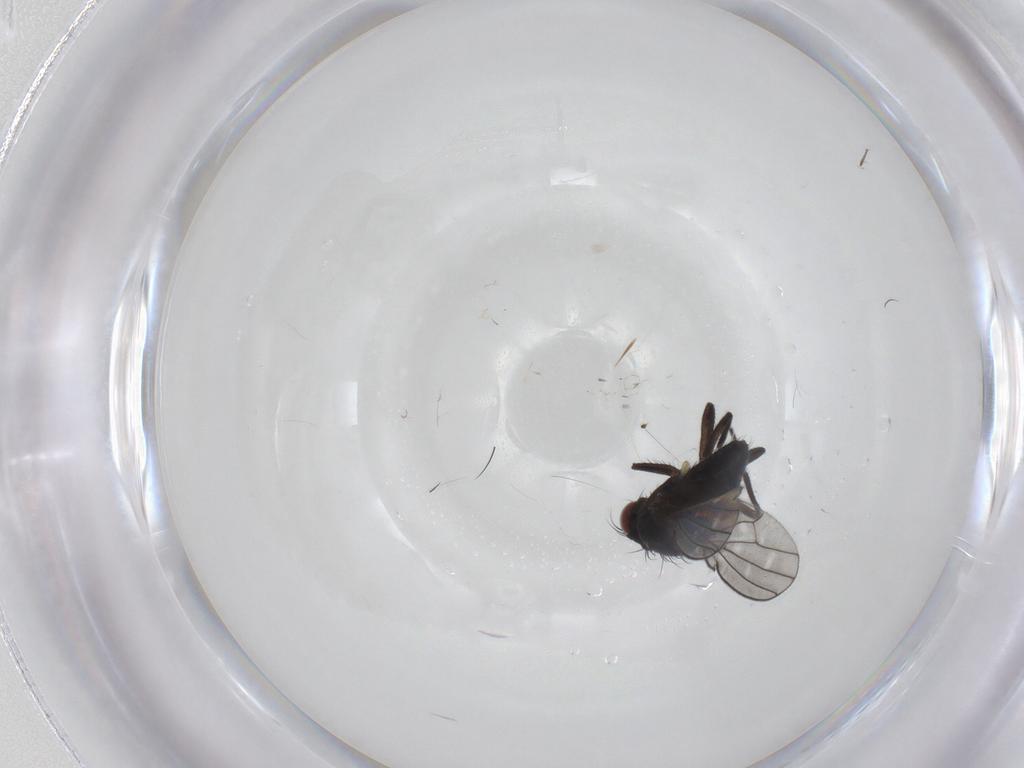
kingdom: Animalia
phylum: Arthropoda
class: Insecta
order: Diptera
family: Ephydridae
